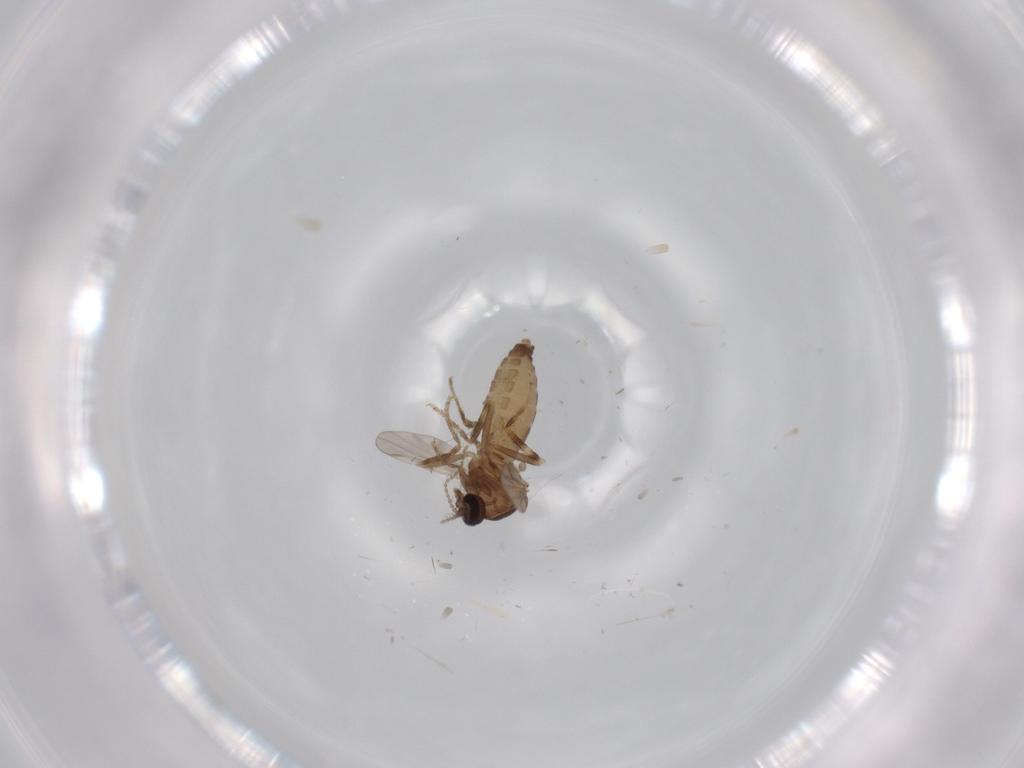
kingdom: Animalia
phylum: Arthropoda
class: Insecta
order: Diptera
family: Ceratopogonidae
